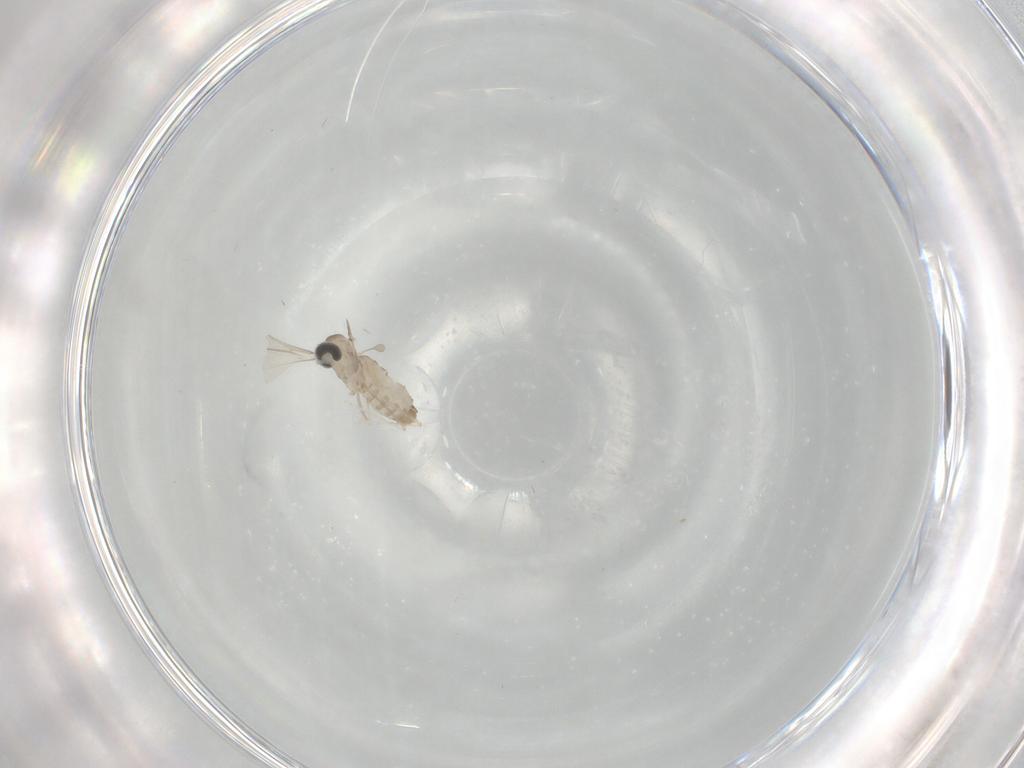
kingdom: Animalia
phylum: Arthropoda
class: Insecta
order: Diptera
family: Cecidomyiidae
